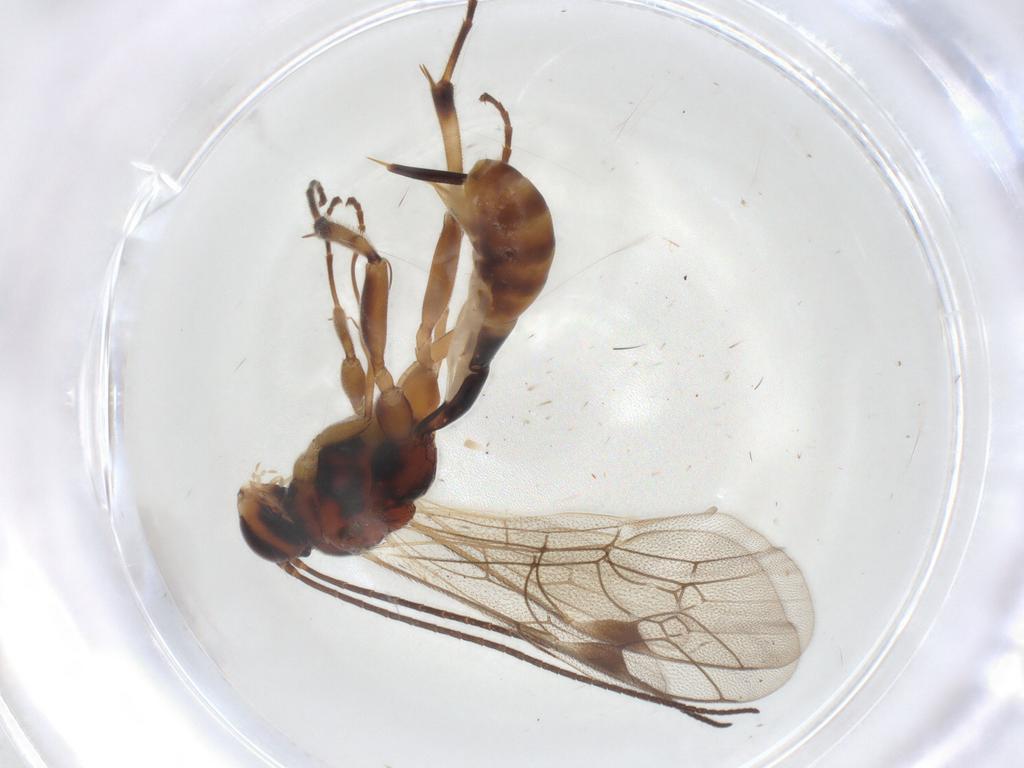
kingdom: Animalia
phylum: Arthropoda
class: Insecta
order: Hymenoptera
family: Ichneumonidae
